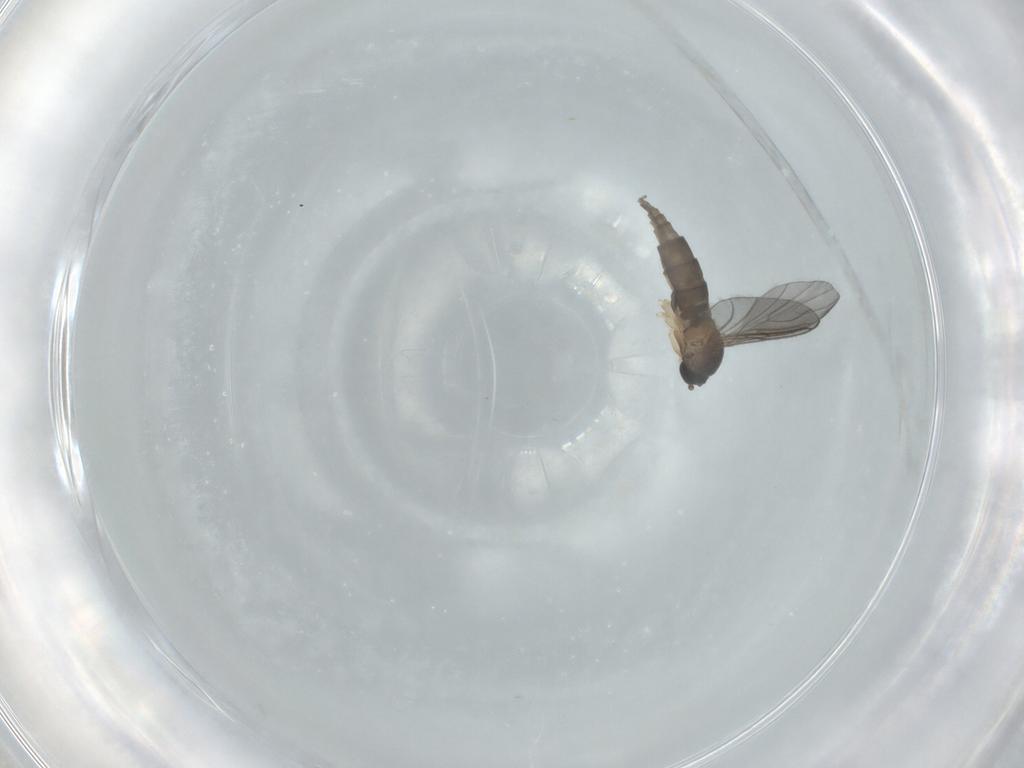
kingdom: Animalia
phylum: Arthropoda
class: Insecta
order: Diptera
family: Sciaridae
